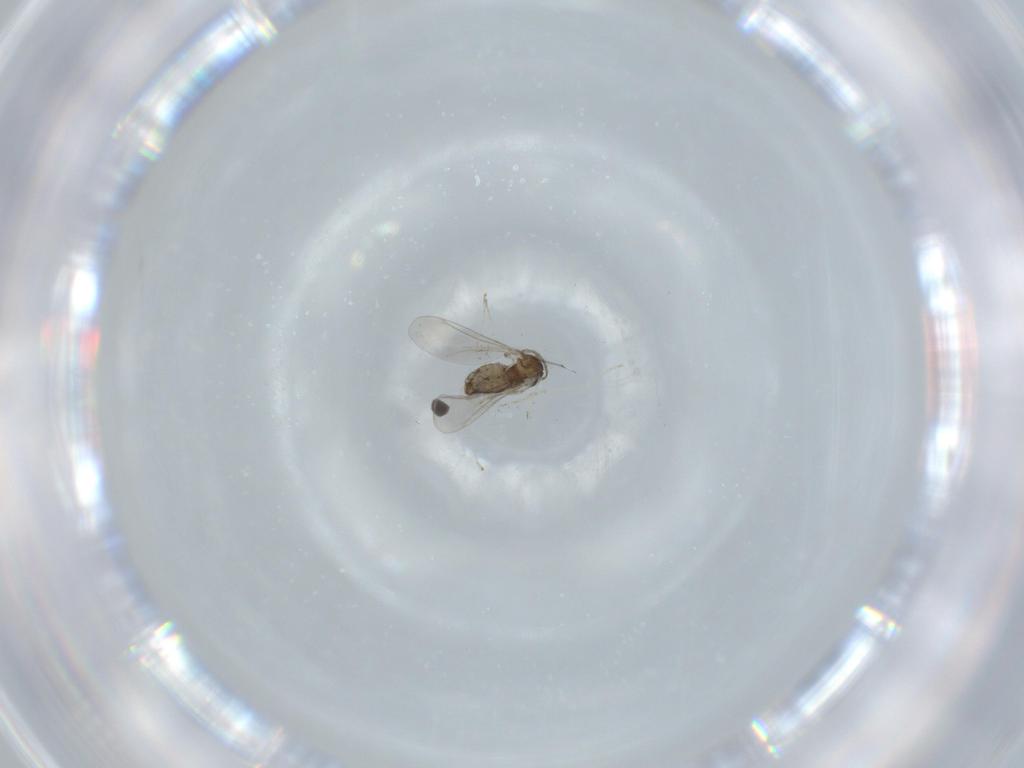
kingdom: Animalia
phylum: Arthropoda
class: Insecta
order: Diptera
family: Cecidomyiidae
